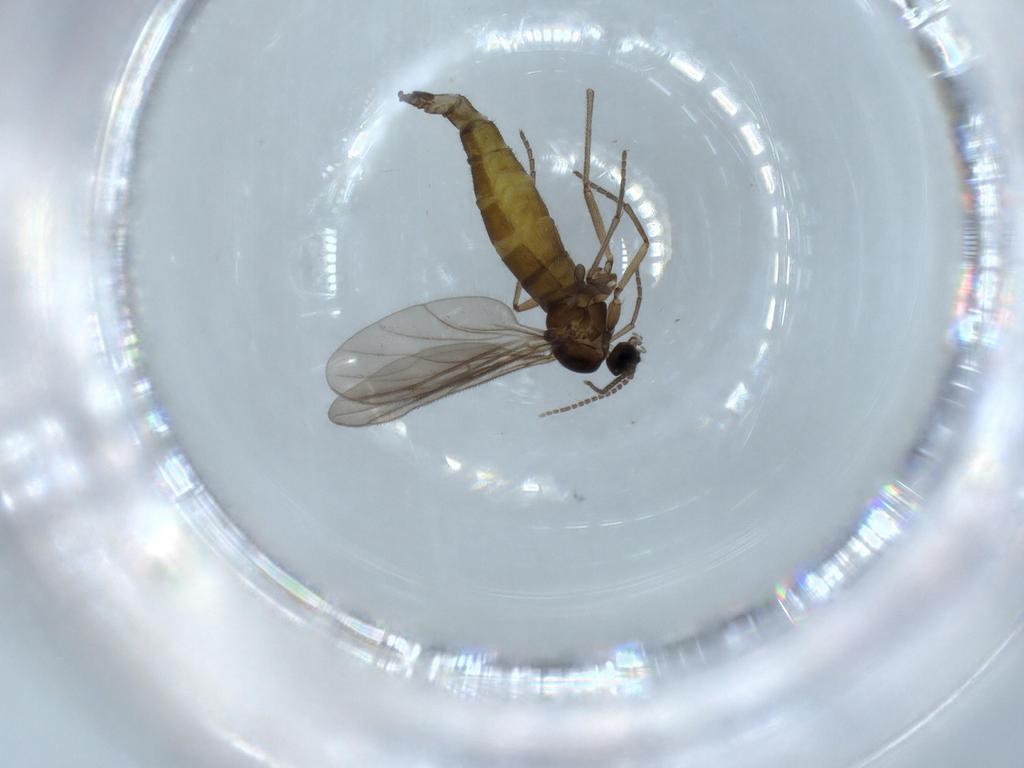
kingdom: Animalia
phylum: Arthropoda
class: Insecta
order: Diptera
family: Sciaridae
